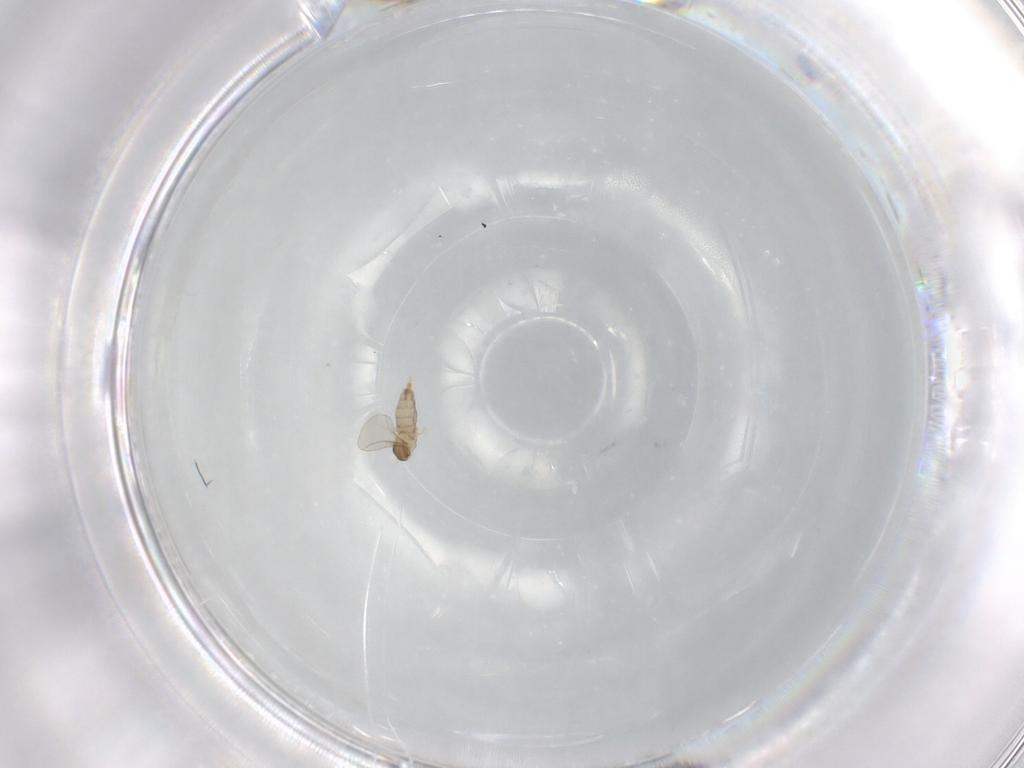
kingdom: Animalia
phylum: Arthropoda
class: Insecta
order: Diptera
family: Cecidomyiidae
